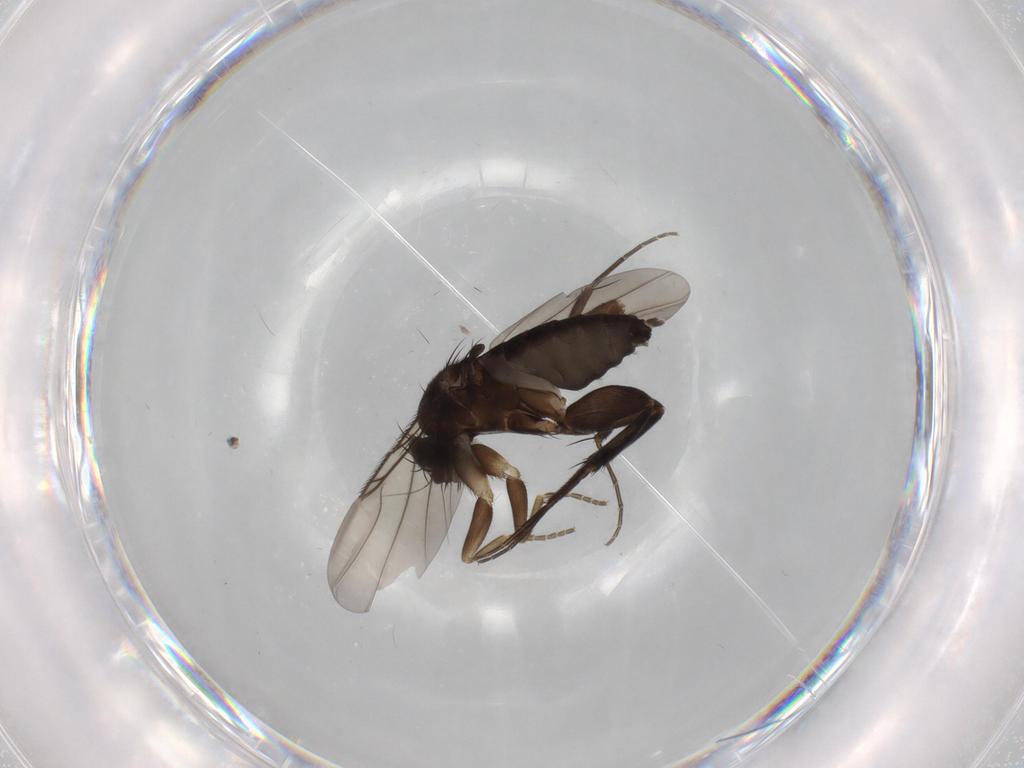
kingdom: Animalia
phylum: Arthropoda
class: Insecta
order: Diptera
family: Phoridae
